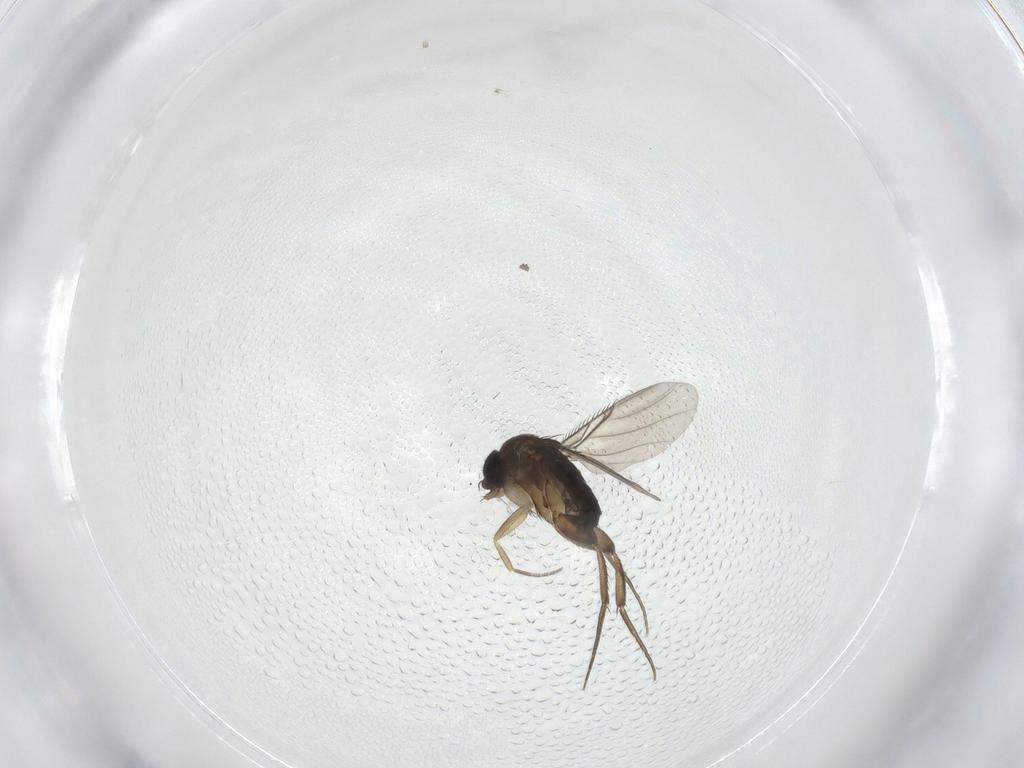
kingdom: Animalia
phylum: Arthropoda
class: Insecta
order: Diptera
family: Phoridae
